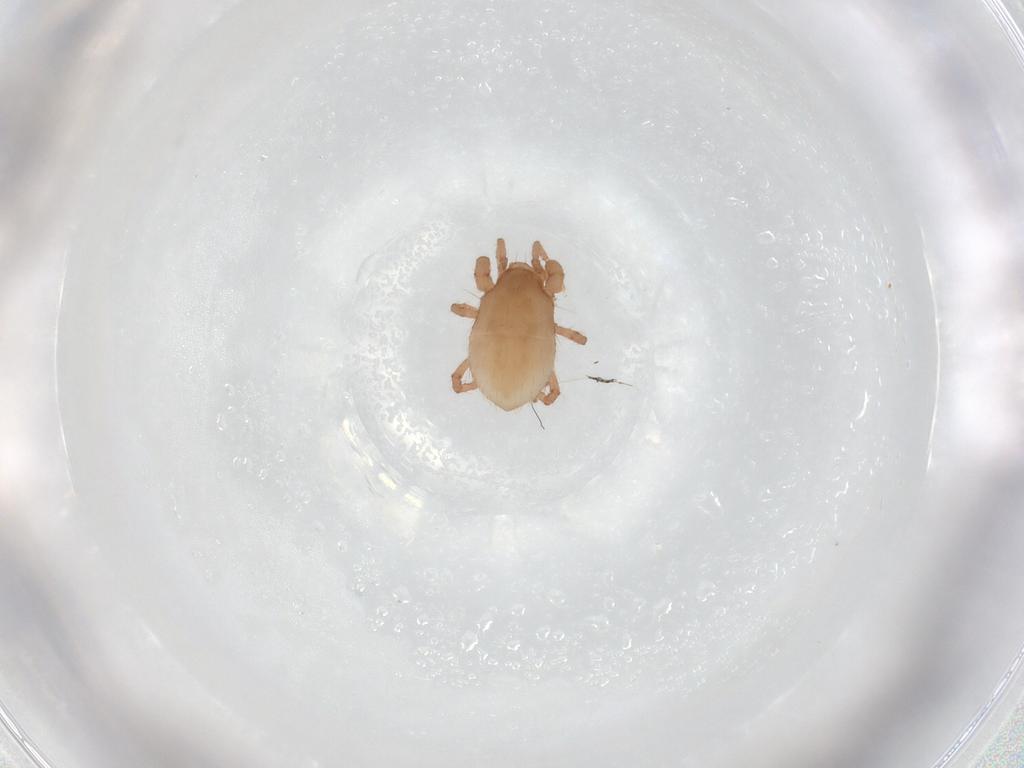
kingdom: Animalia
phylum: Arthropoda
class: Arachnida
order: Mesostigmata
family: Parasitidae
